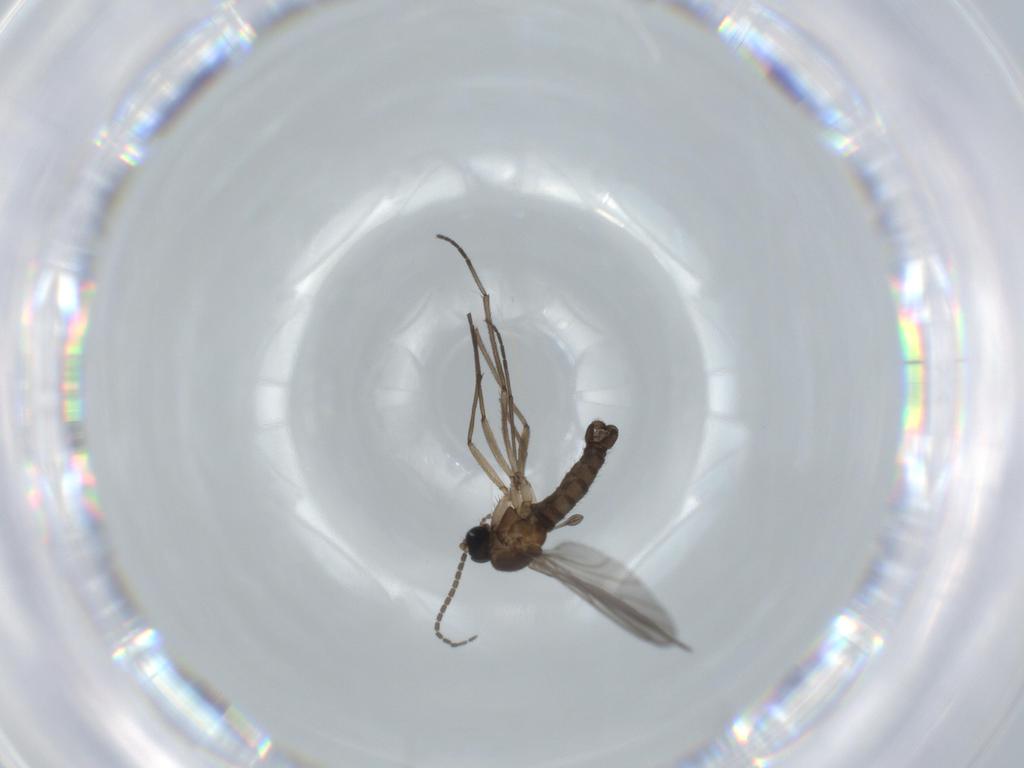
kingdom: Animalia
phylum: Arthropoda
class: Insecta
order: Diptera
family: Sciaridae
